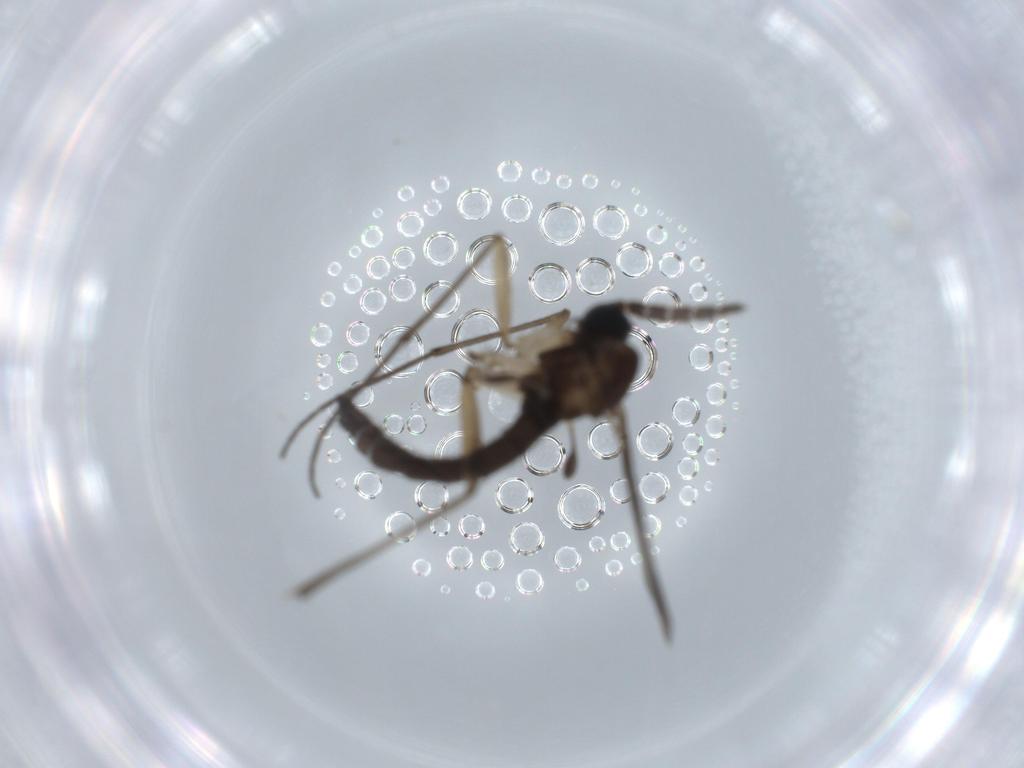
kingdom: Animalia
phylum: Arthropoda
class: Insecta
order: Diptera
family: Sciaridae
